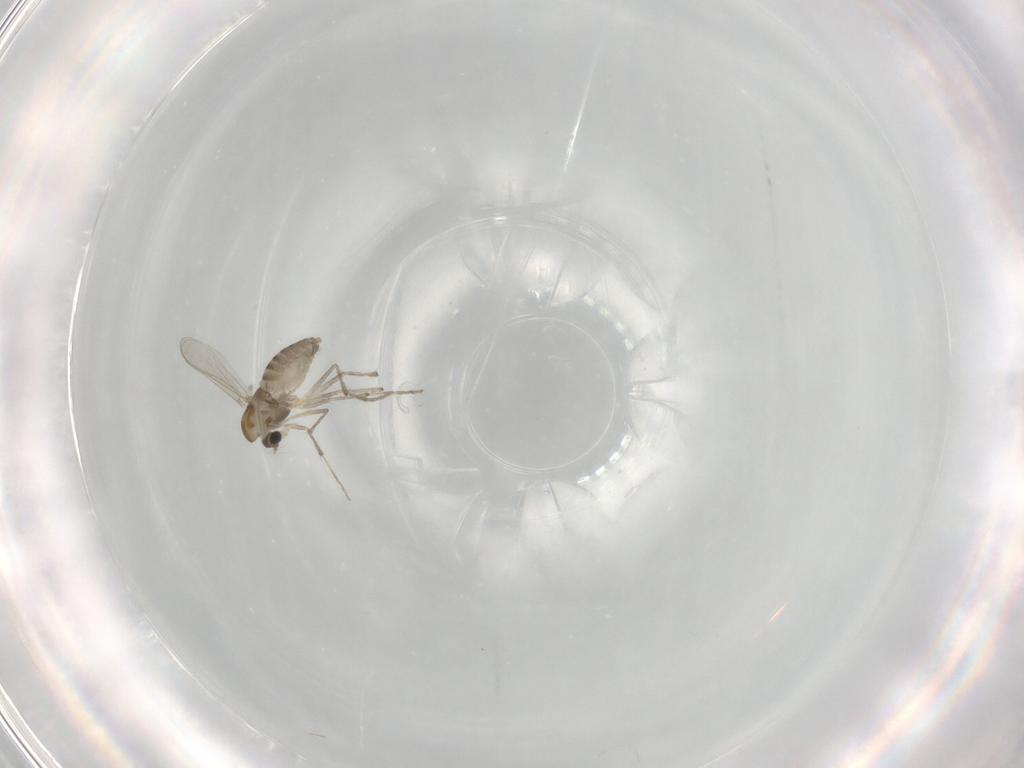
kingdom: Animalia
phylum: Arthropoda
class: Insecta
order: Diptera
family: Chironomidae
